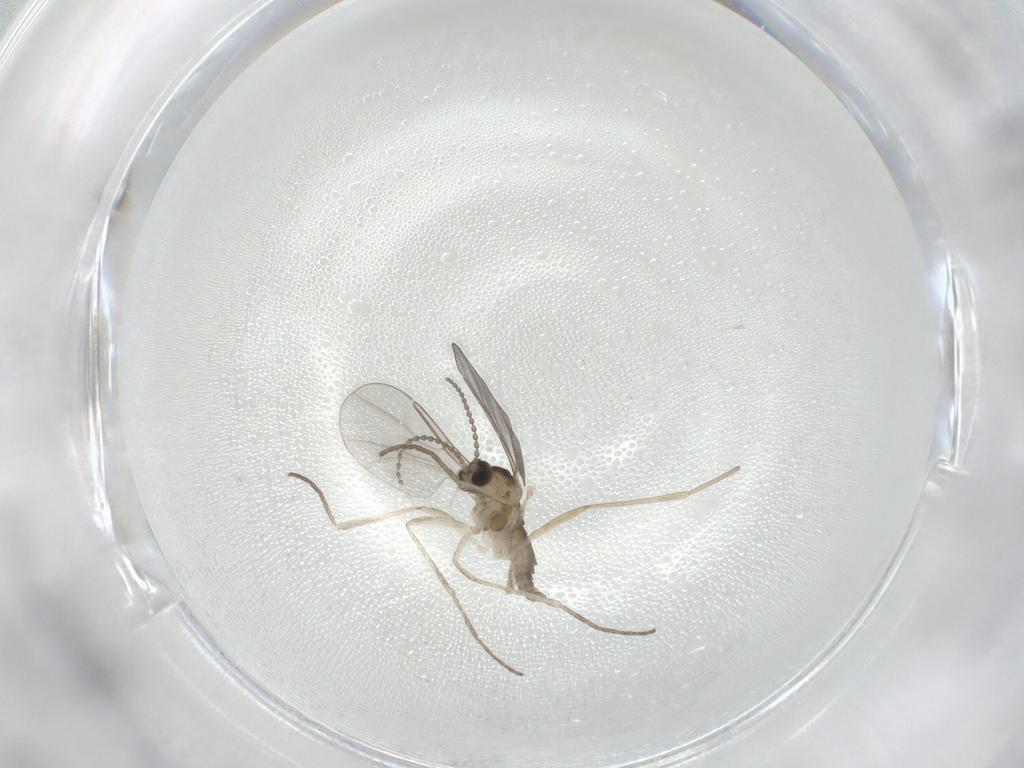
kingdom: Animalia
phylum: Arthropoda
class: Insecta
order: Diptera
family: Cecidomyiidae
